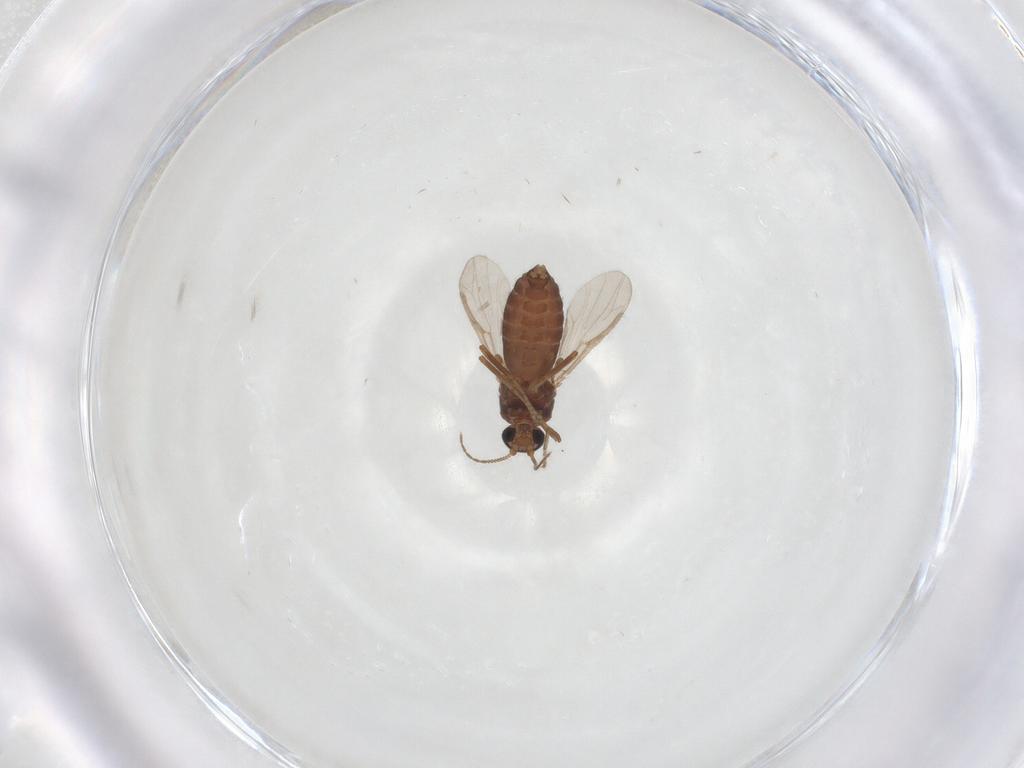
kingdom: Animalia
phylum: Arthropoda
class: Insecta
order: Diptera
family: Ceratopogonidae
